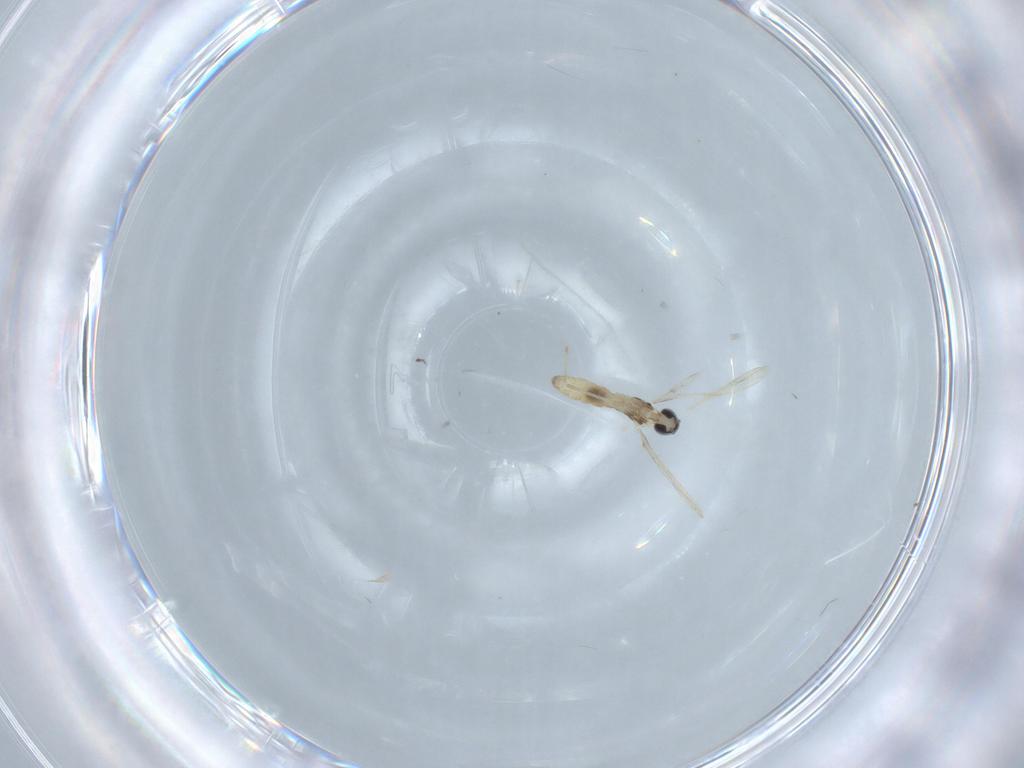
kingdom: Animalia
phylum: Arthropoda
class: Insecta
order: Diptera
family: Cecidomyiidae
